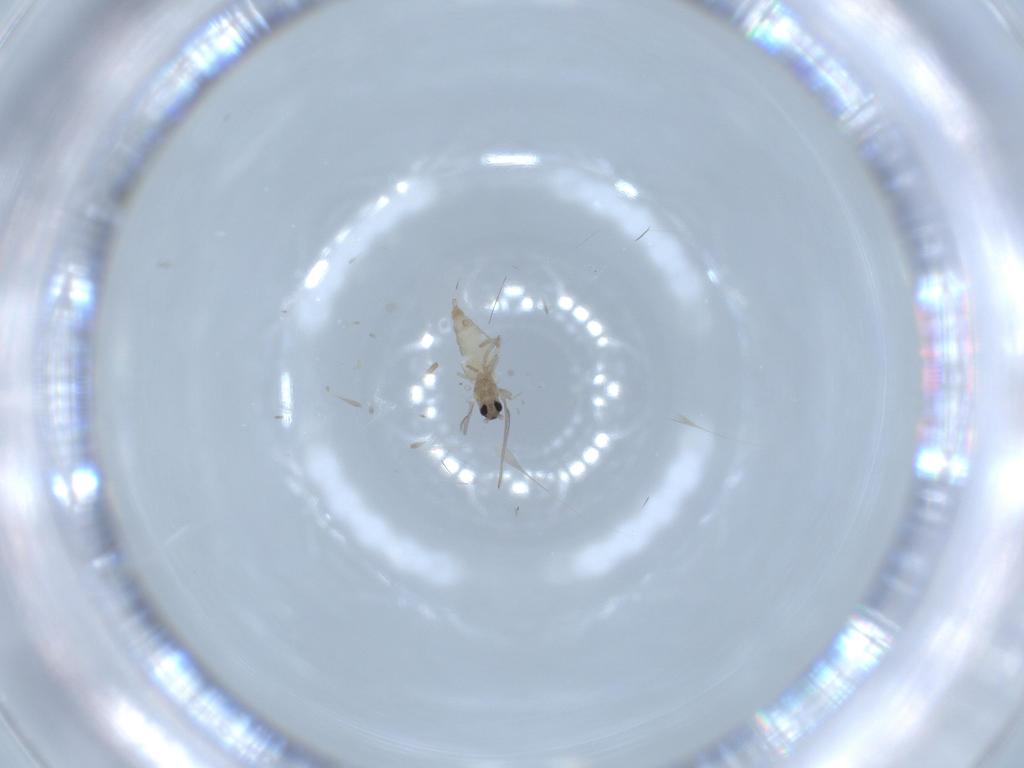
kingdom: Animalia
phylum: Arthropoda
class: Insecta
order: Diptera
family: Cecidomyiidae
